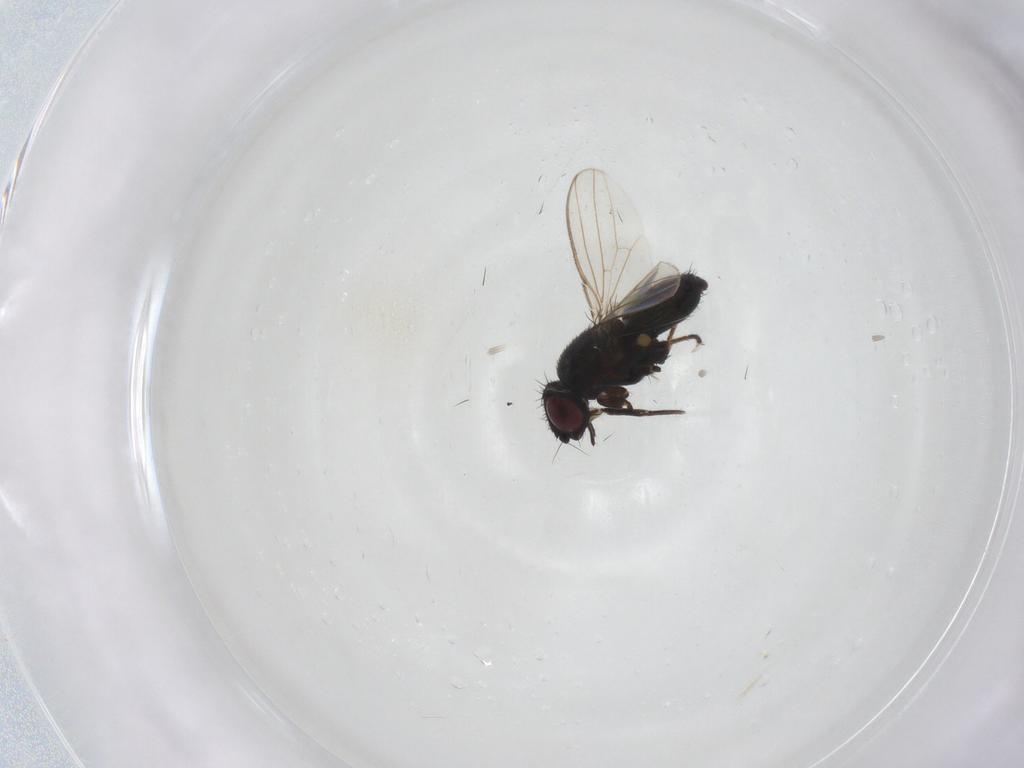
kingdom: Animalia
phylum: Arthropoda
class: Insecta
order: Diptera
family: Milichiidae
